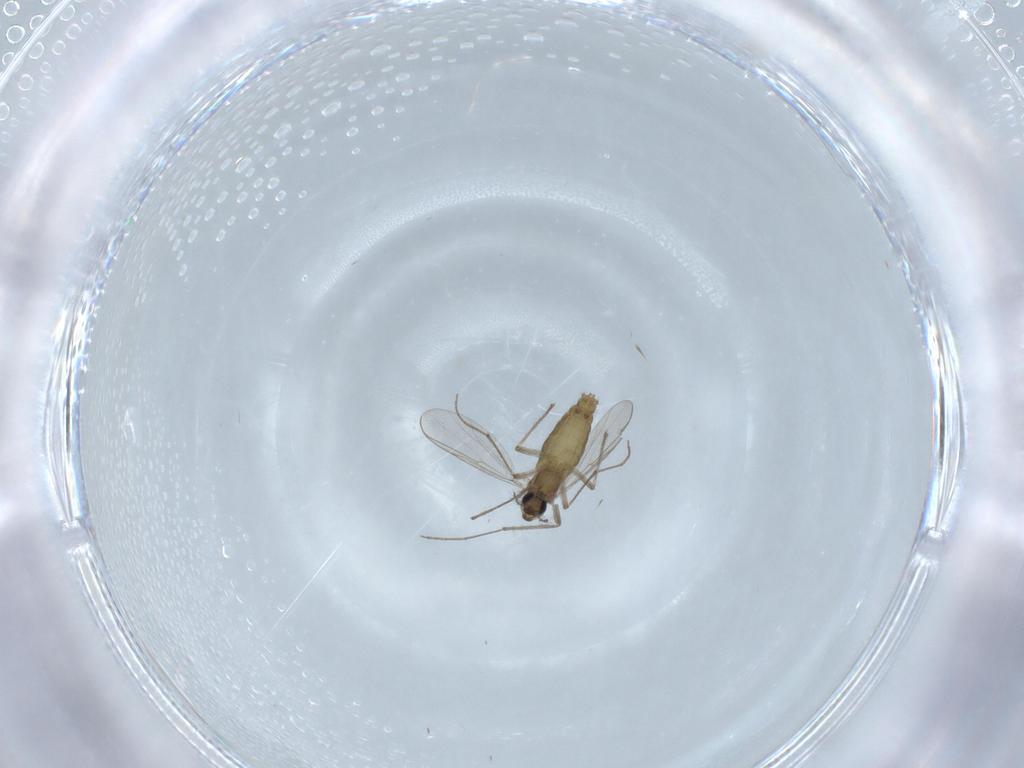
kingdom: Animalia
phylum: Arthropoda
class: Insecta
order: Diptera
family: Chironomidae
